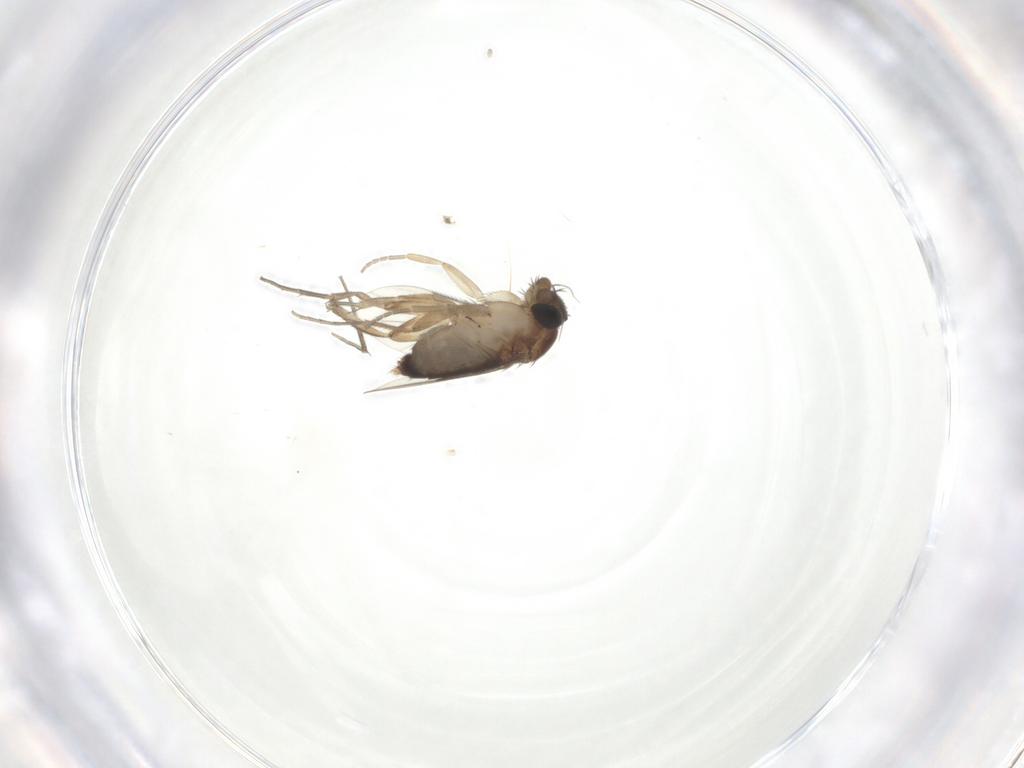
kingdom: Animalia
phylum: Arthropoda
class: Insecta
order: Diptera
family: Phoridae
